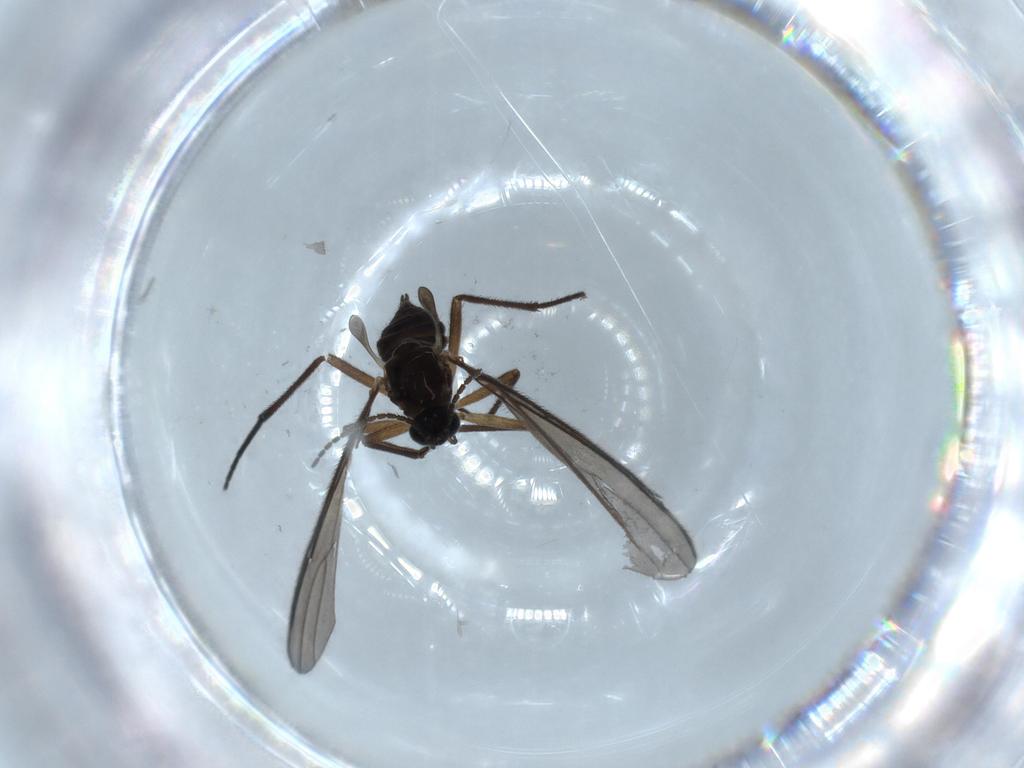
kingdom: Animalia
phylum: Arthropoda
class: Insecta
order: Diptera
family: Sciaridae
